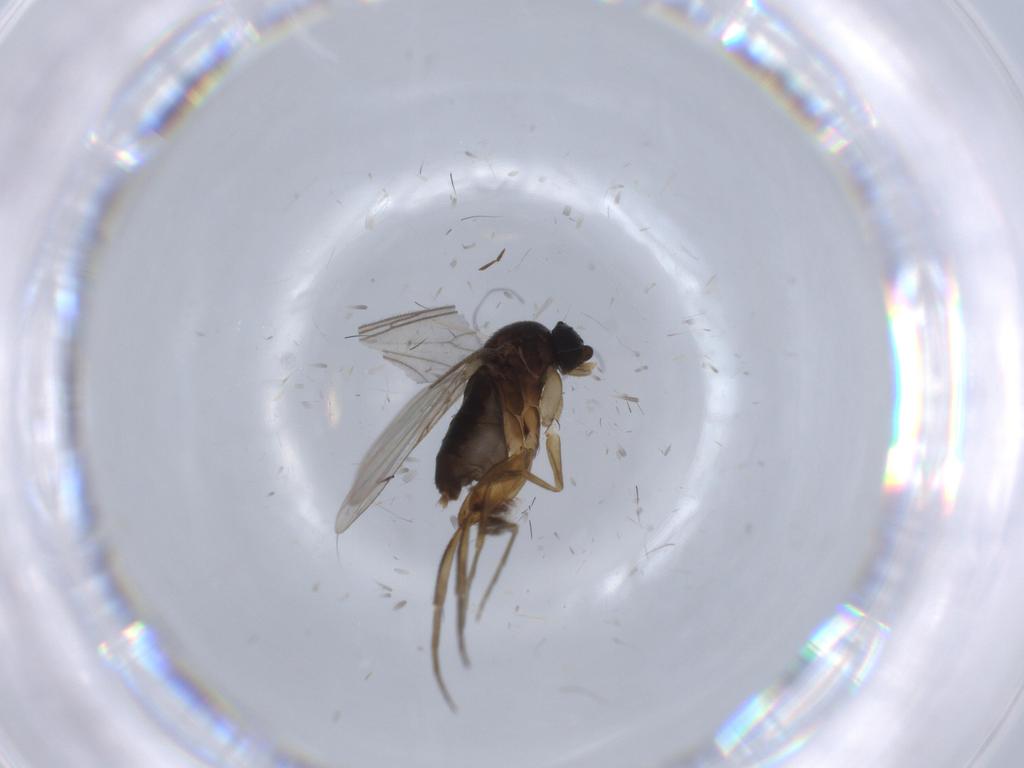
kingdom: Animalia
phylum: Arthropoda
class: Insecta
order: Diptera
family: Phoridae
